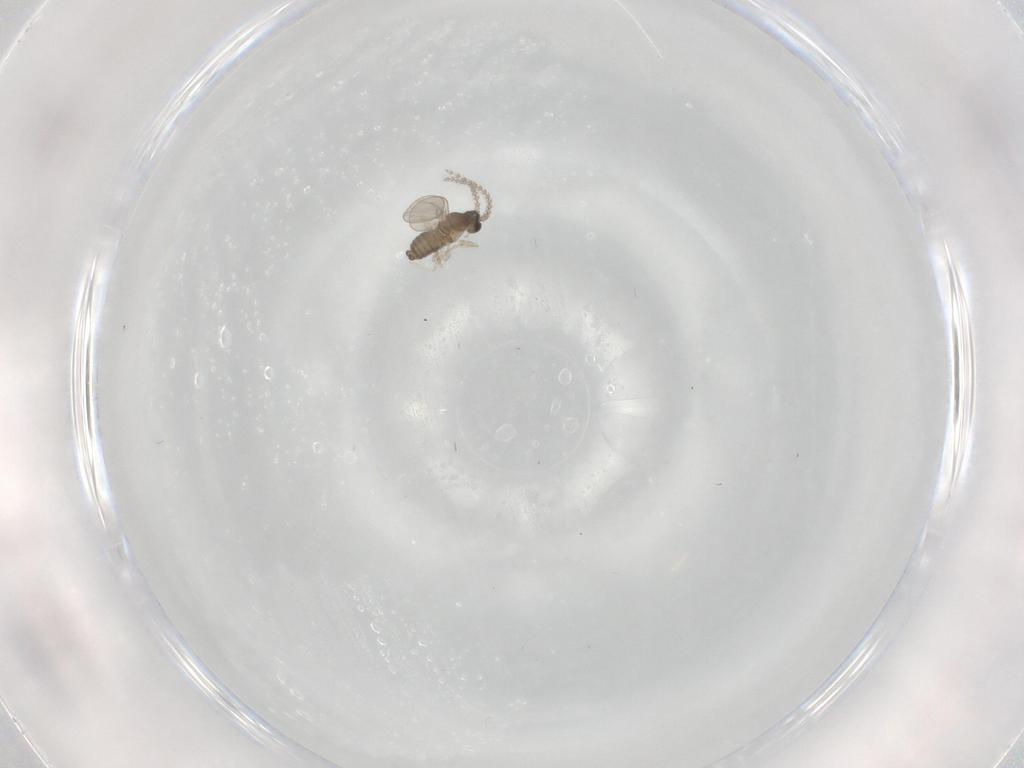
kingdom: Animalia
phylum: Arthropoda
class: Insecta
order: Diptera
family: Cecidomyiidae
